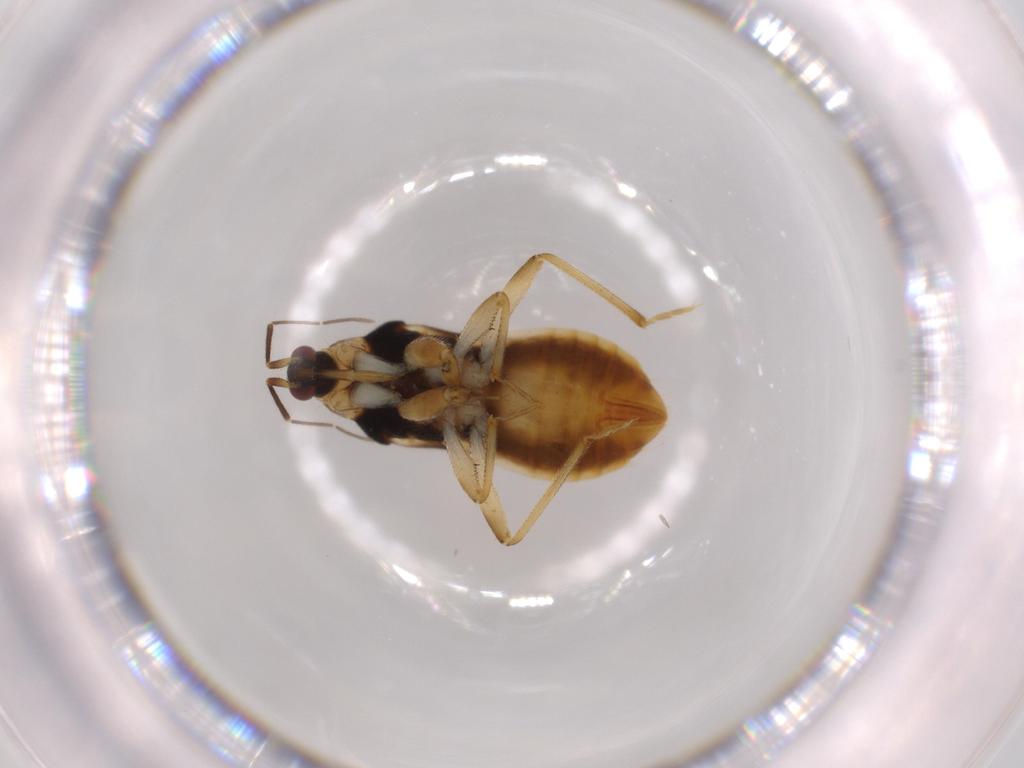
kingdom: Animalia
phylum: Arthropoda
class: Insecta
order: Hemiptera
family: Nabidae
